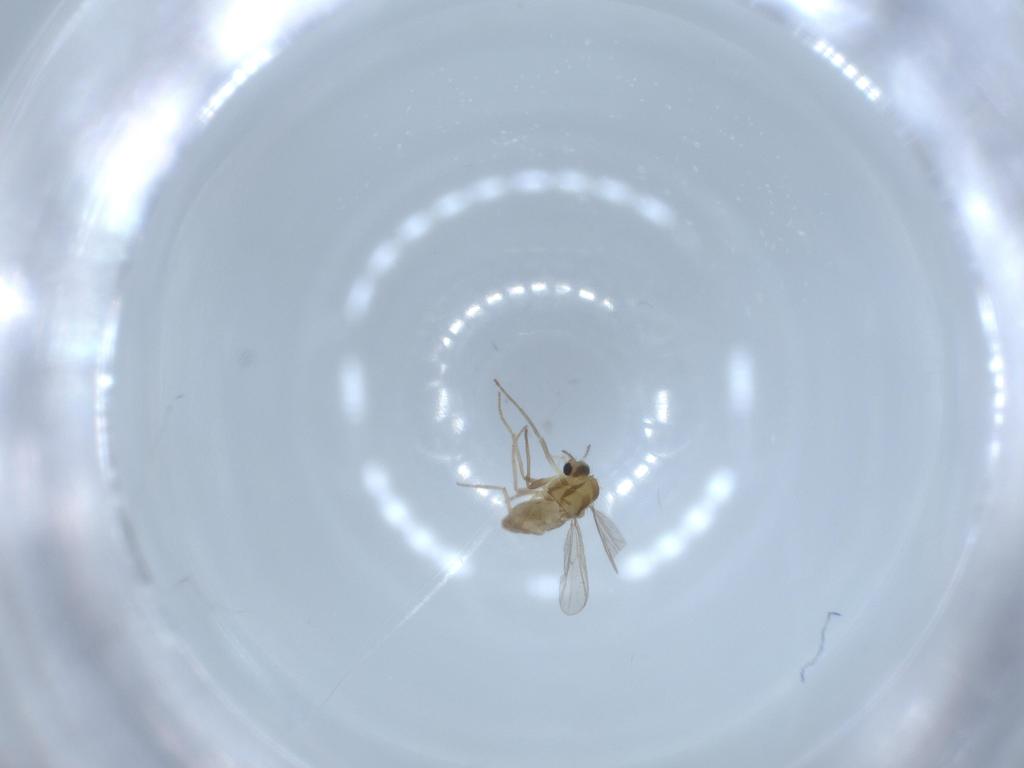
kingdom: Animalia
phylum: Arthropoda
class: Insecta
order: Diptera
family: Chironomidae
